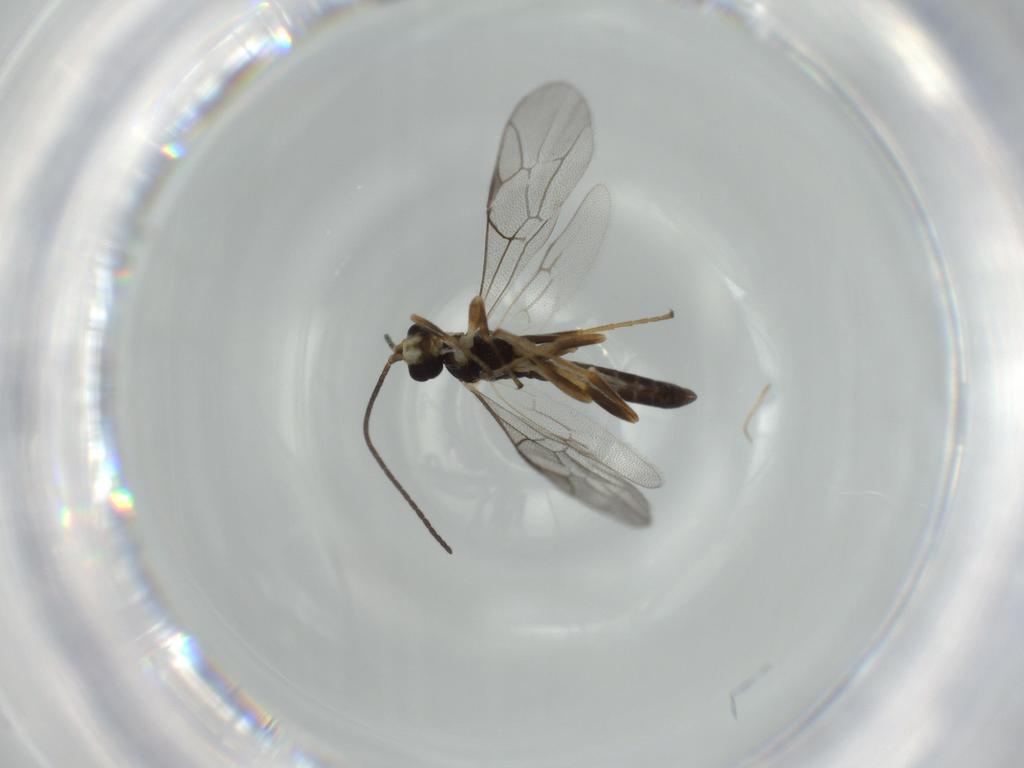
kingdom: Animalia
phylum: Arthropoda
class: Insecta
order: Hymenoptera
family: Ichneumonidae
